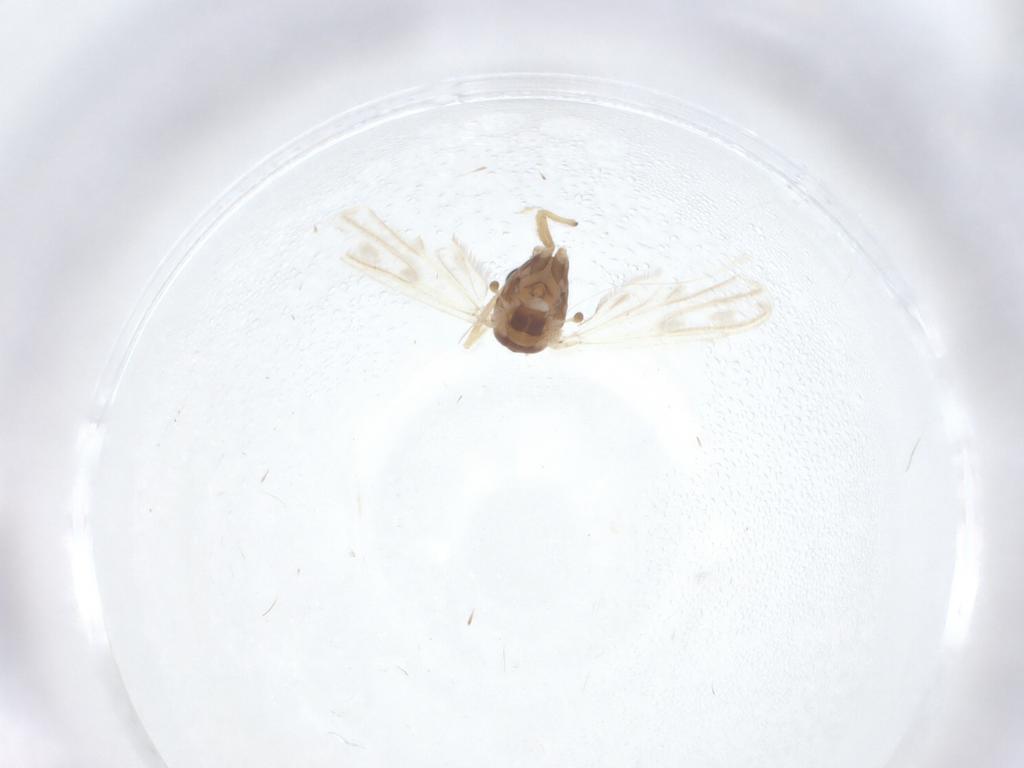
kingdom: Animalia
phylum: Arthropoda
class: Insecta
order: Diptera
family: Chironomidae
